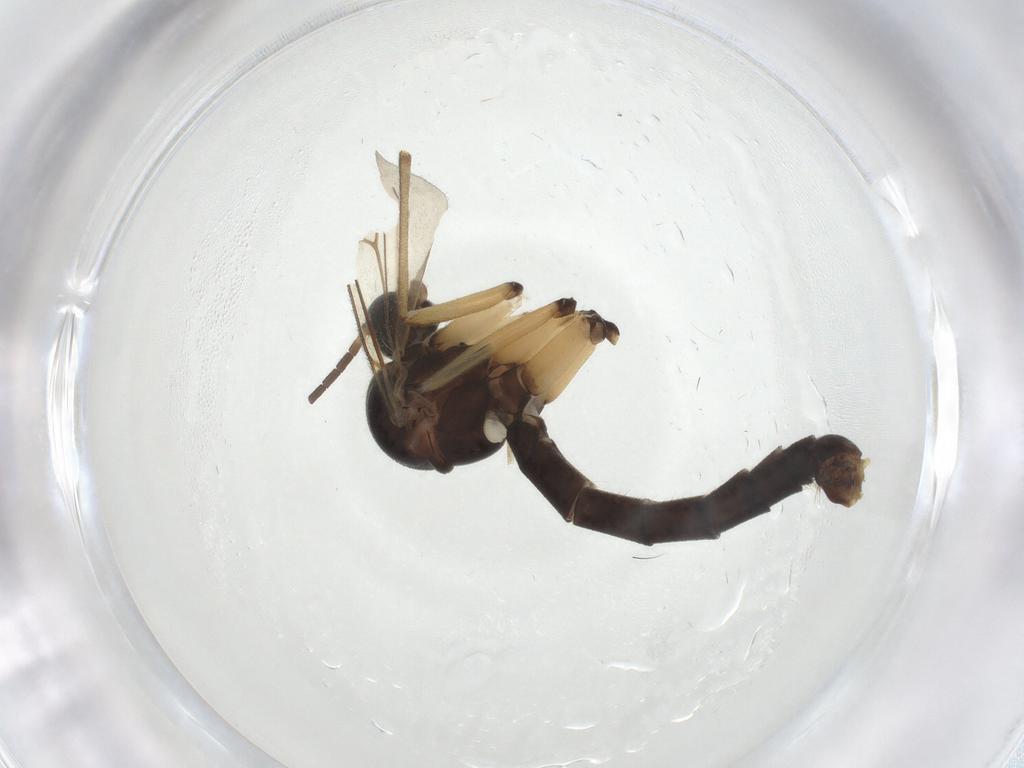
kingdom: Animalia
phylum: Arthropoda
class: Insecta
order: Diptera
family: Mycetophilidae
